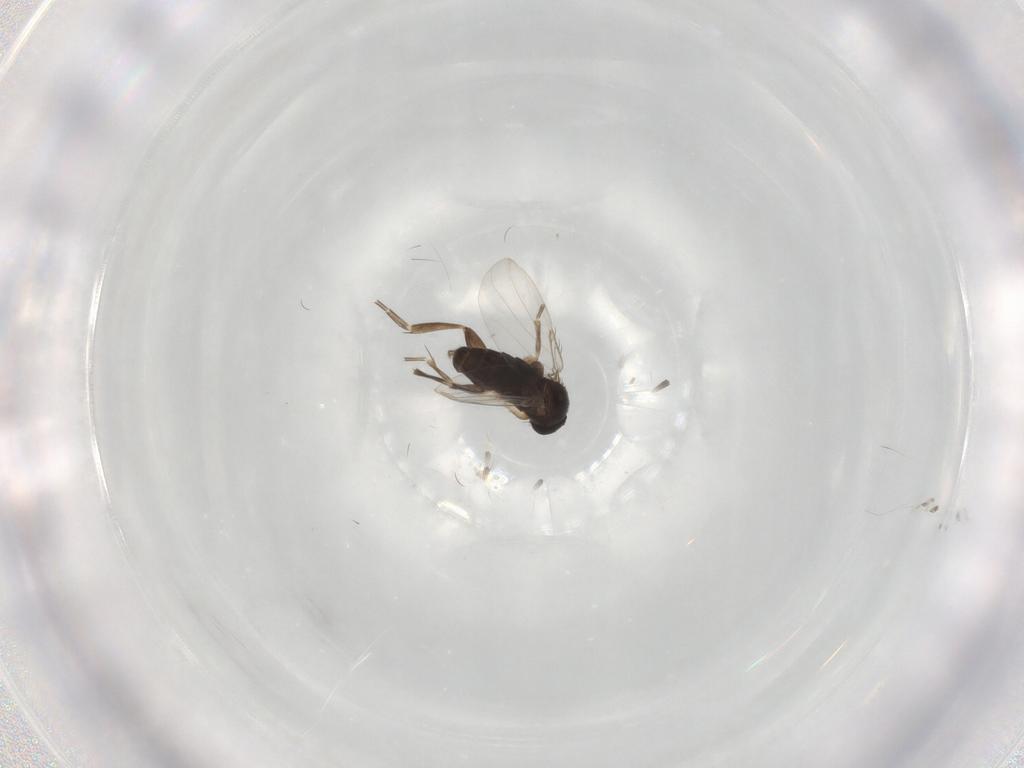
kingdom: Animalia
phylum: Arthropoda
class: Insecta
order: Diptera
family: Phoridae
